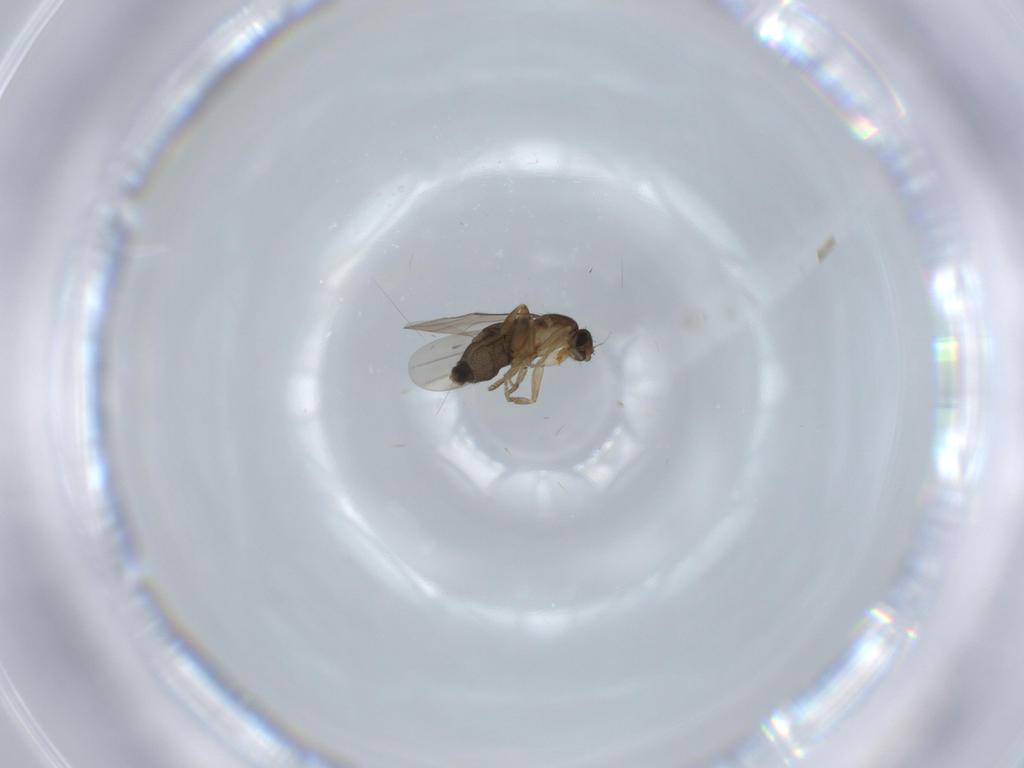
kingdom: Animalia
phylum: Arthropoda
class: Insecta
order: Diptera
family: Phoridae
